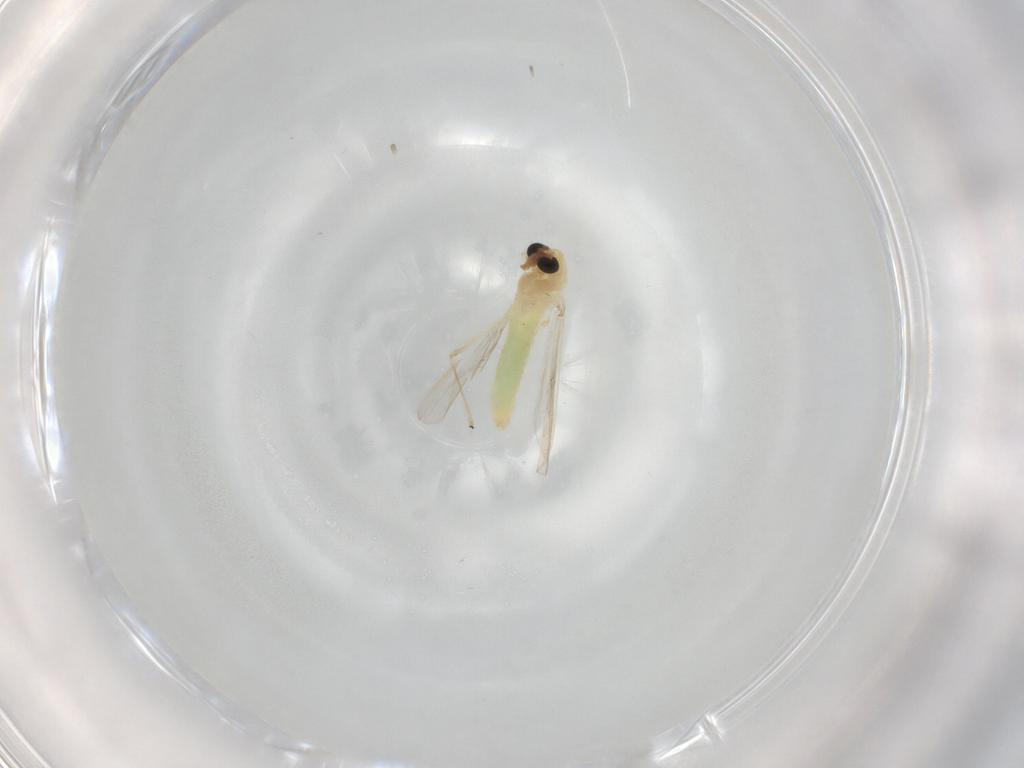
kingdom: Animalia
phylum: Arthropoda
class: Insecta
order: Diptera
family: Chironomidae
